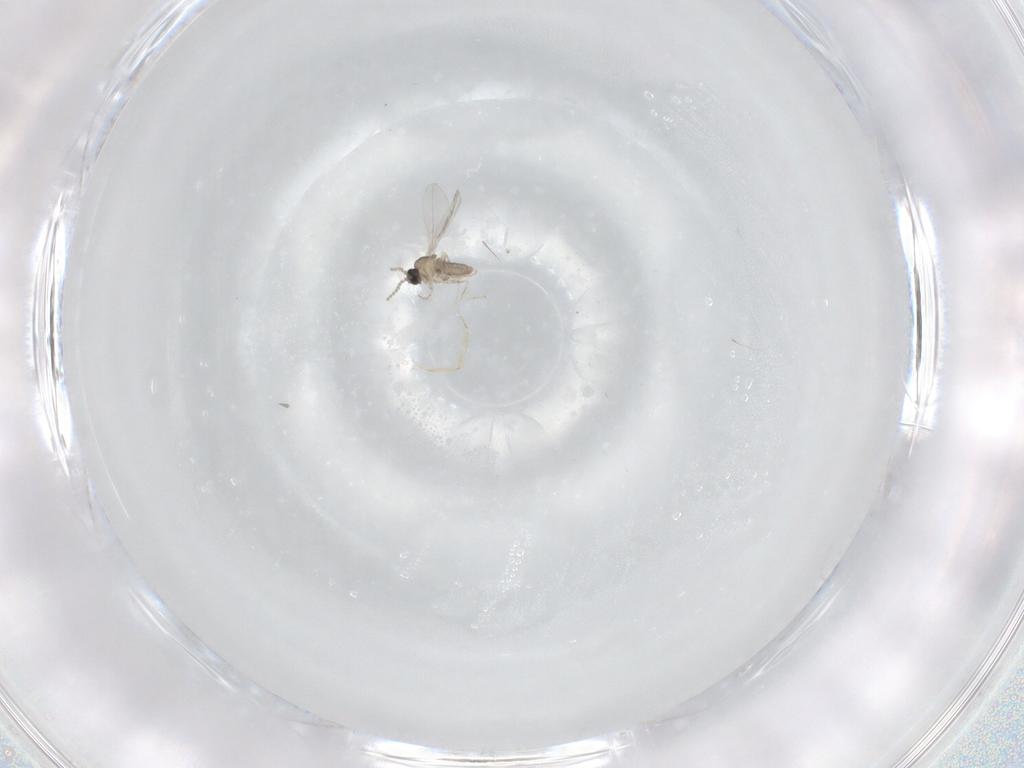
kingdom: Animalia
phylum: Arthropoda
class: Insecta
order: Diptera
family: Cecidomyiidae
